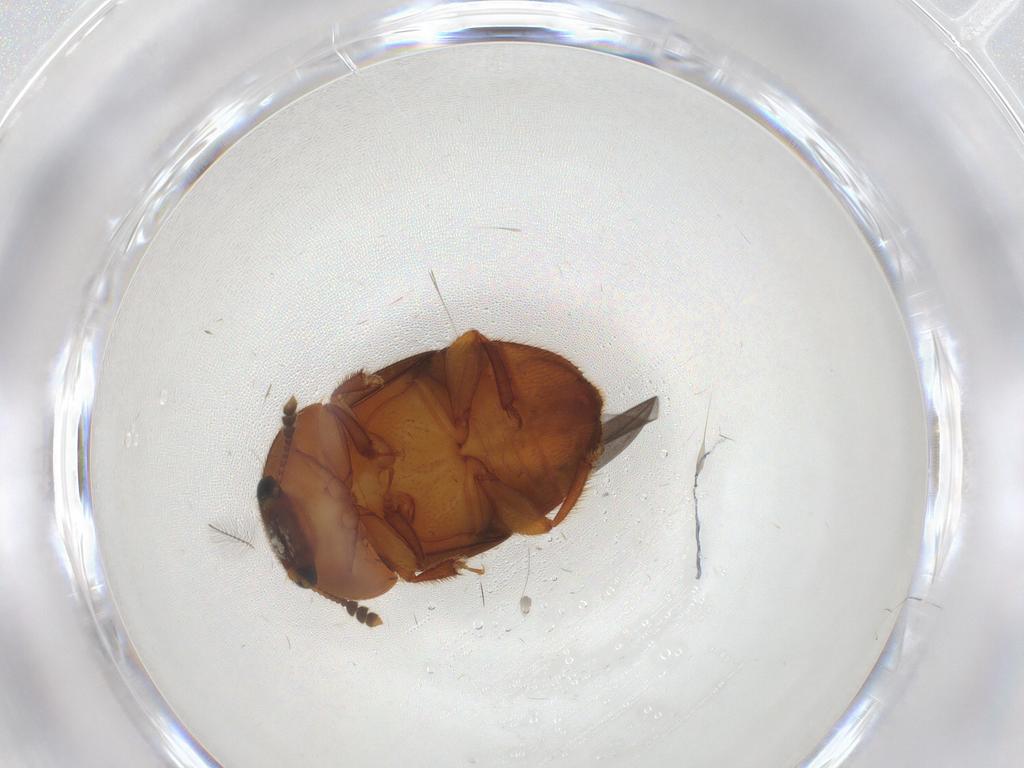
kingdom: Animalia
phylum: Arthropoda
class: Insecta
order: Coleoptera
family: Nitidulidae
